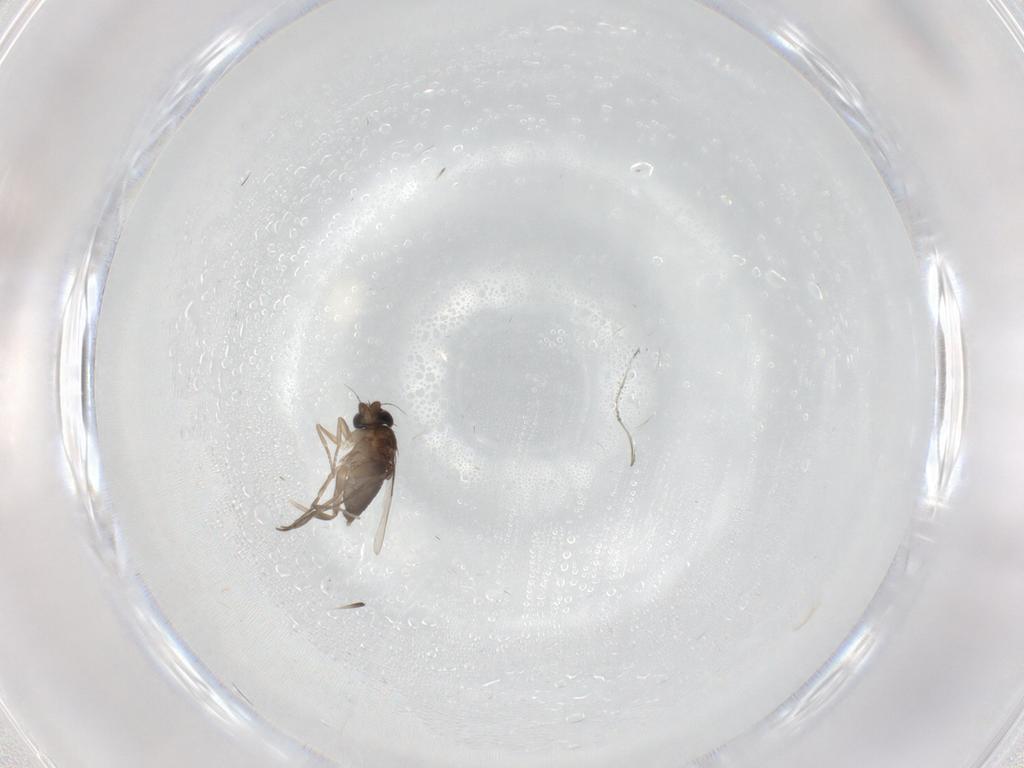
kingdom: Animalia
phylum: Arthropoda
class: Insecta
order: Diptera
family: Phoridae
